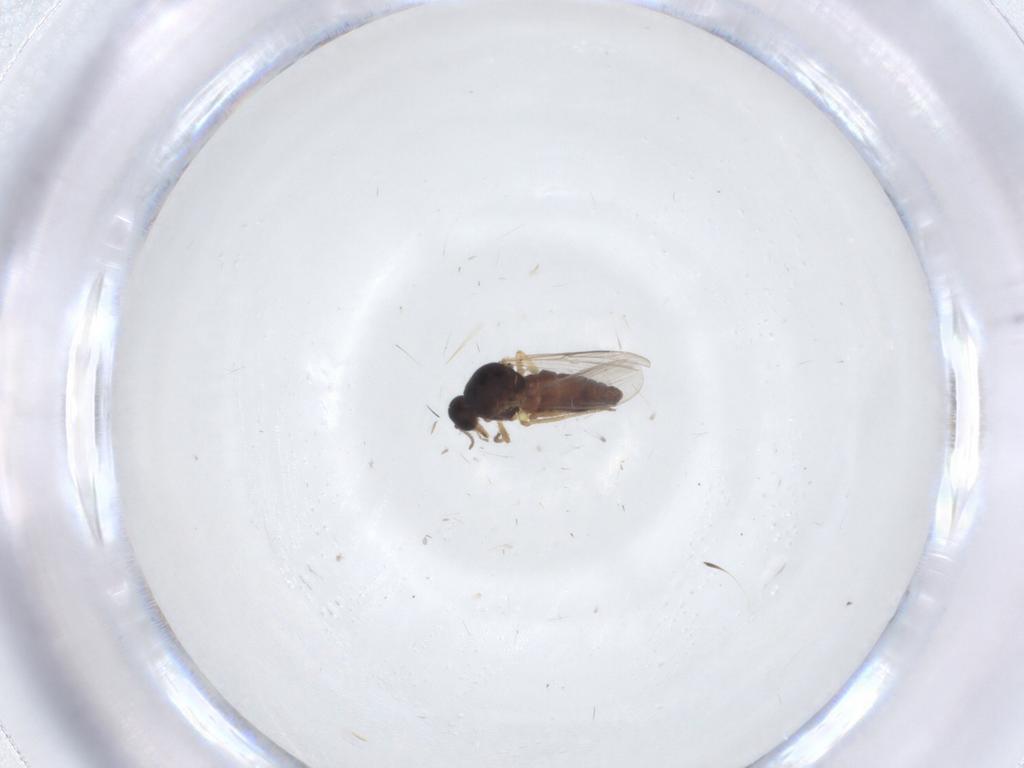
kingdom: Animalia
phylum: Arthropoda
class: Insecta
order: Diptera
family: Ceratopogonidae
